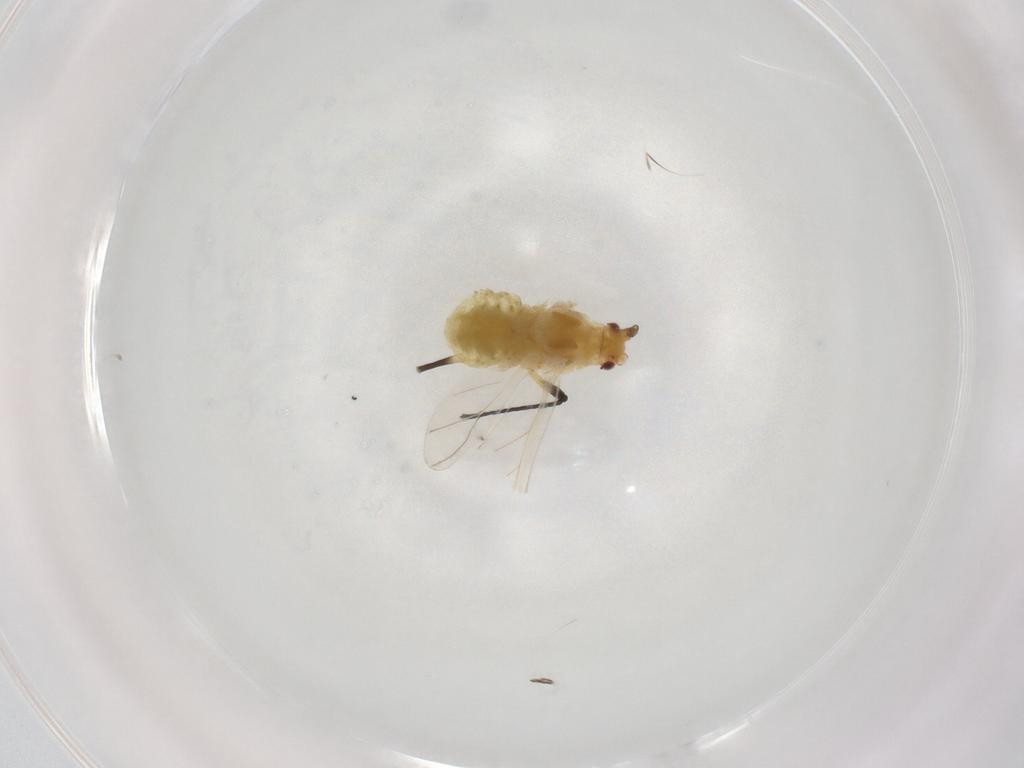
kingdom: Animalia
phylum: Arthropoda
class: Insecta
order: Hemiptera
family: Aphididae
